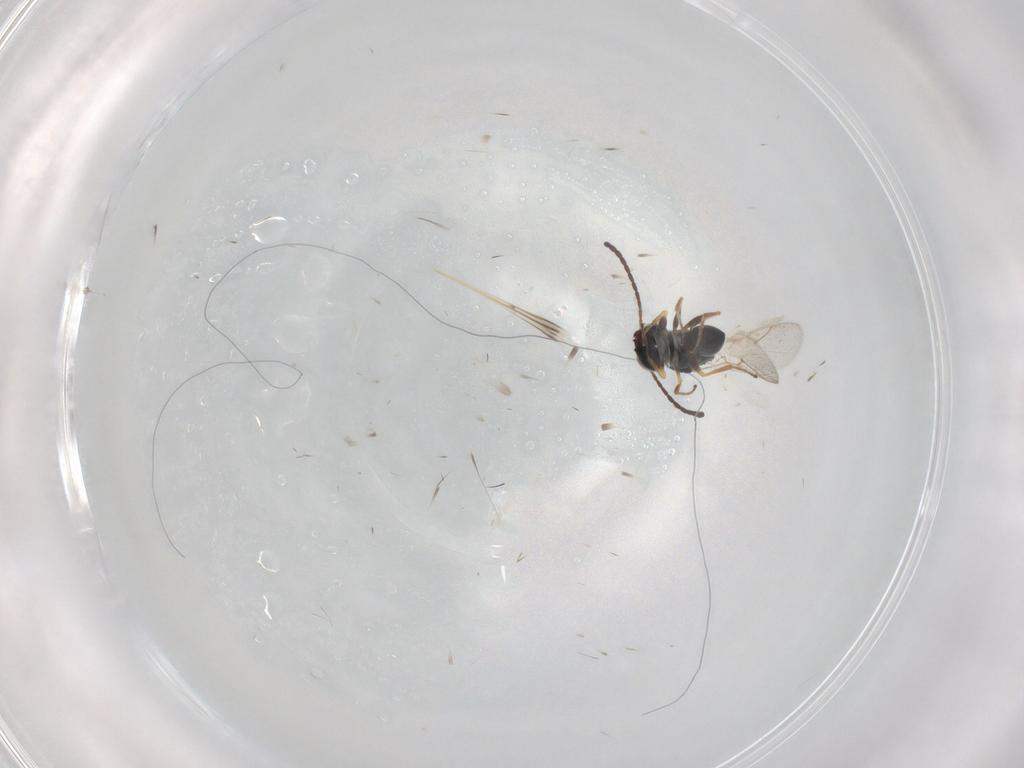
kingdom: Animalia
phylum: Arthropoda
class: Insecta
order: Hymenoptera
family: Figitidae
